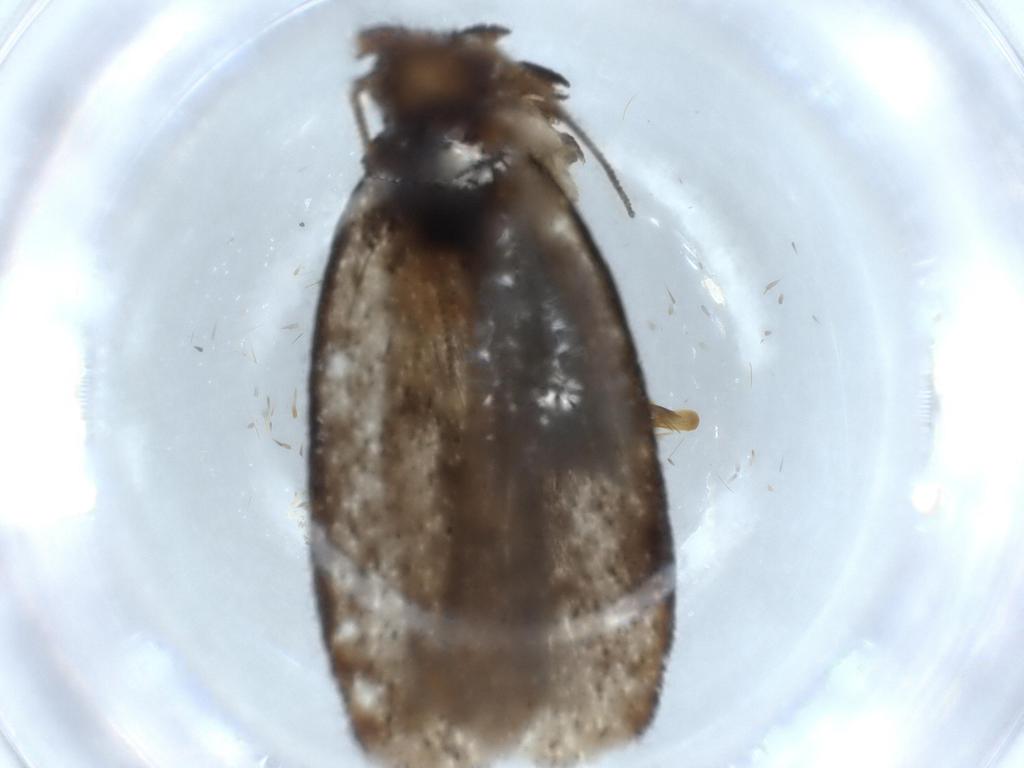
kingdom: Animalia
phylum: Arthropoda
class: Insecta
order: Lepidoptera
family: Tineidae
